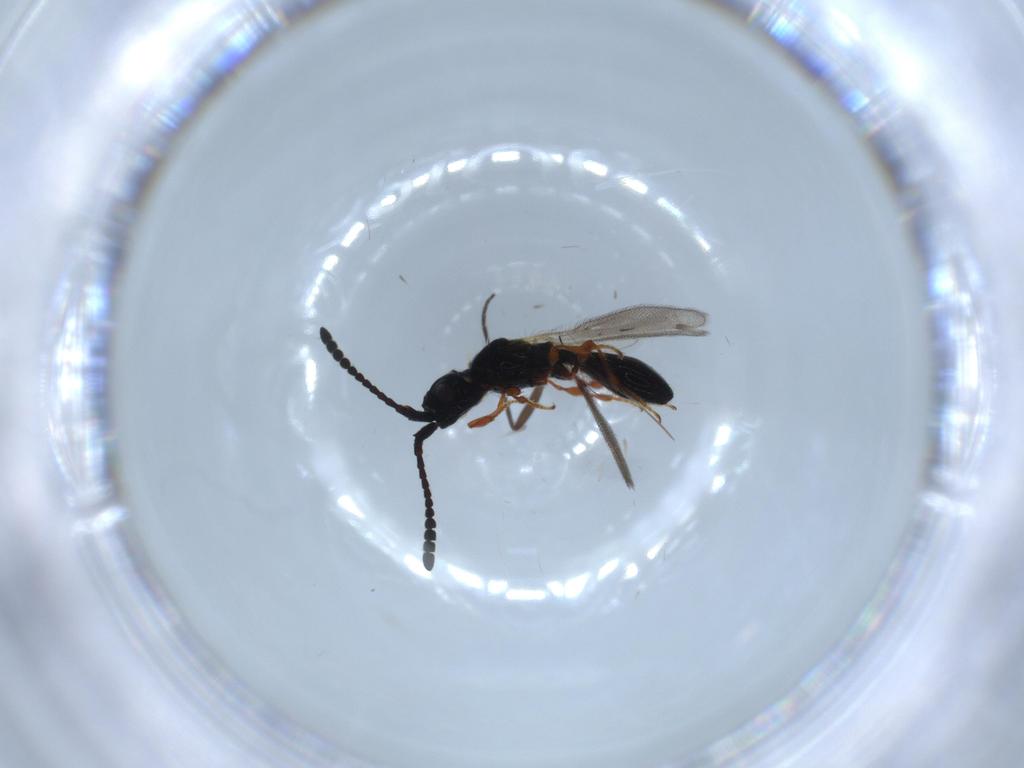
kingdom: Animalia
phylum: Arthropoda
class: Insecta
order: Hymenoptera
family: Diapriidae
